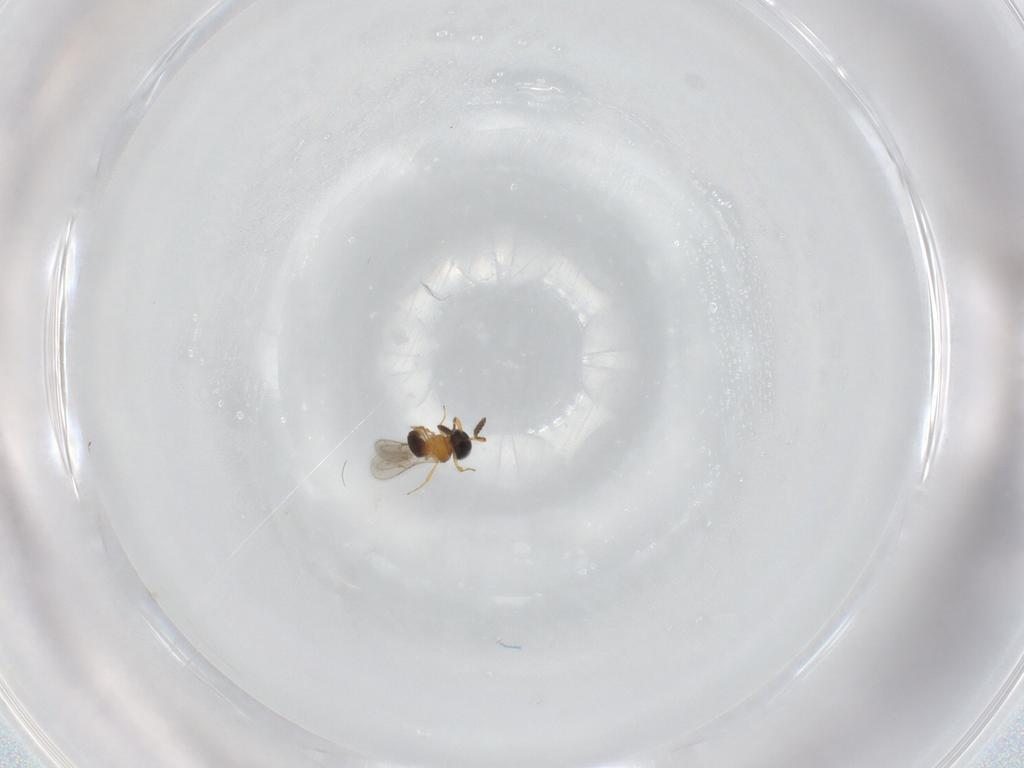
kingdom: Animalia
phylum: Arthropoda
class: Insecta
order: Hymenoptera
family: Scelionidae
